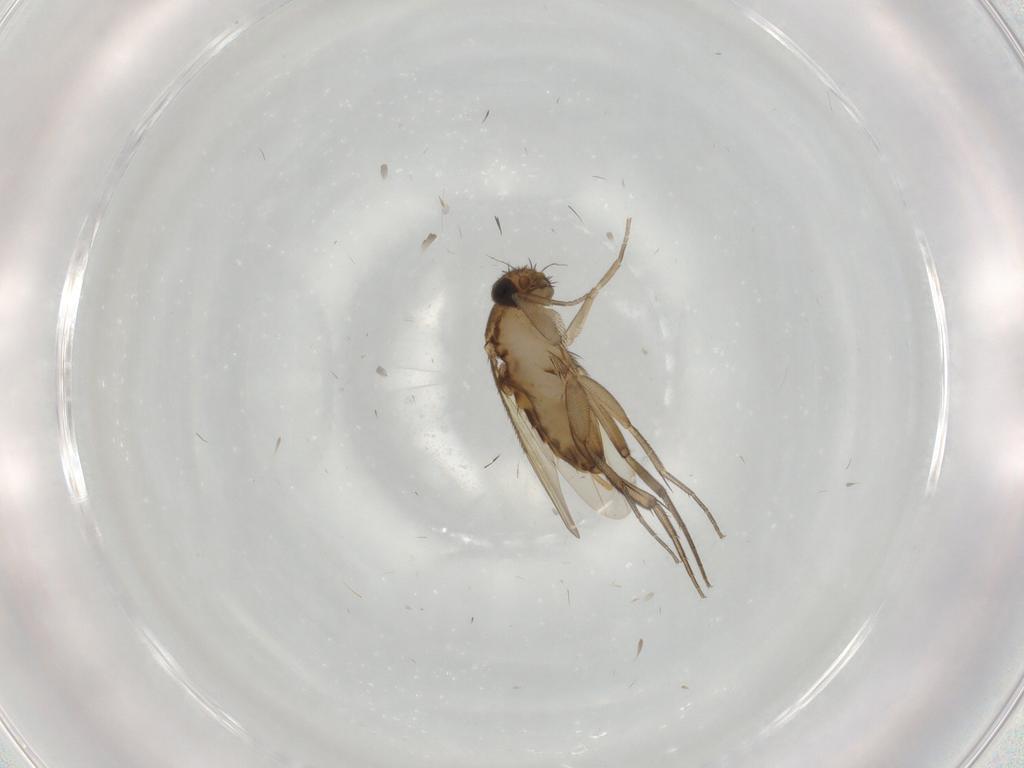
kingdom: Animalia
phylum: Arthropoda
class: Insecta
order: Diptera
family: Phoridae
